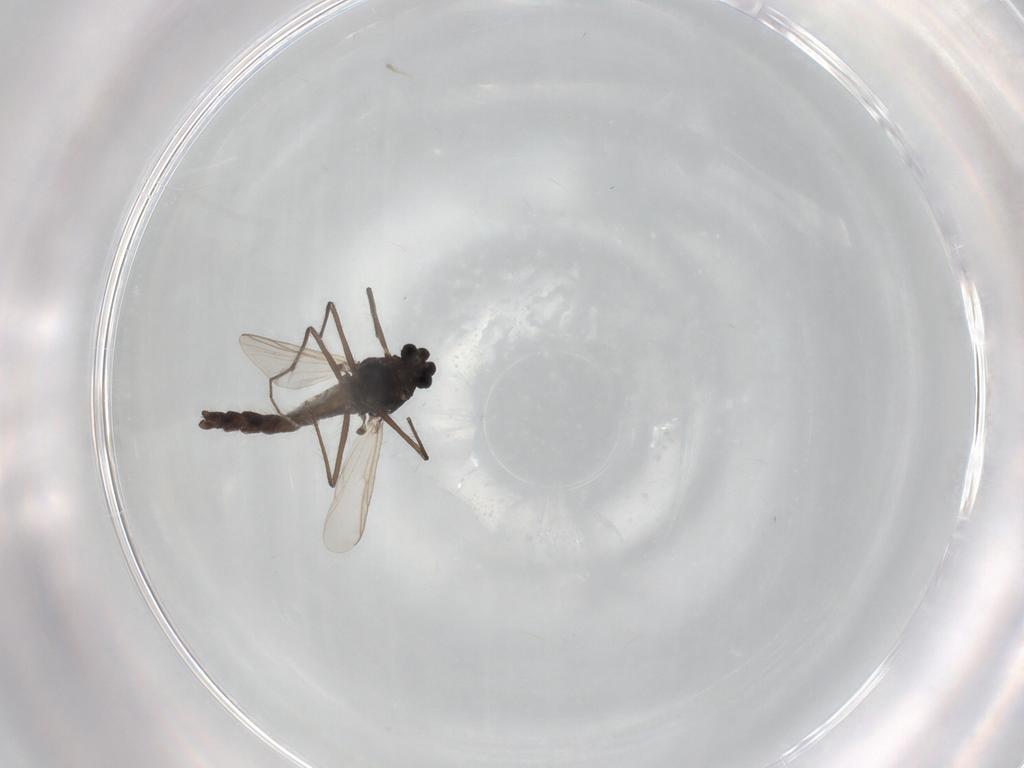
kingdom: Animalia
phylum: Arthropoda
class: Insecta
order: Diptera
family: Chironomidae
